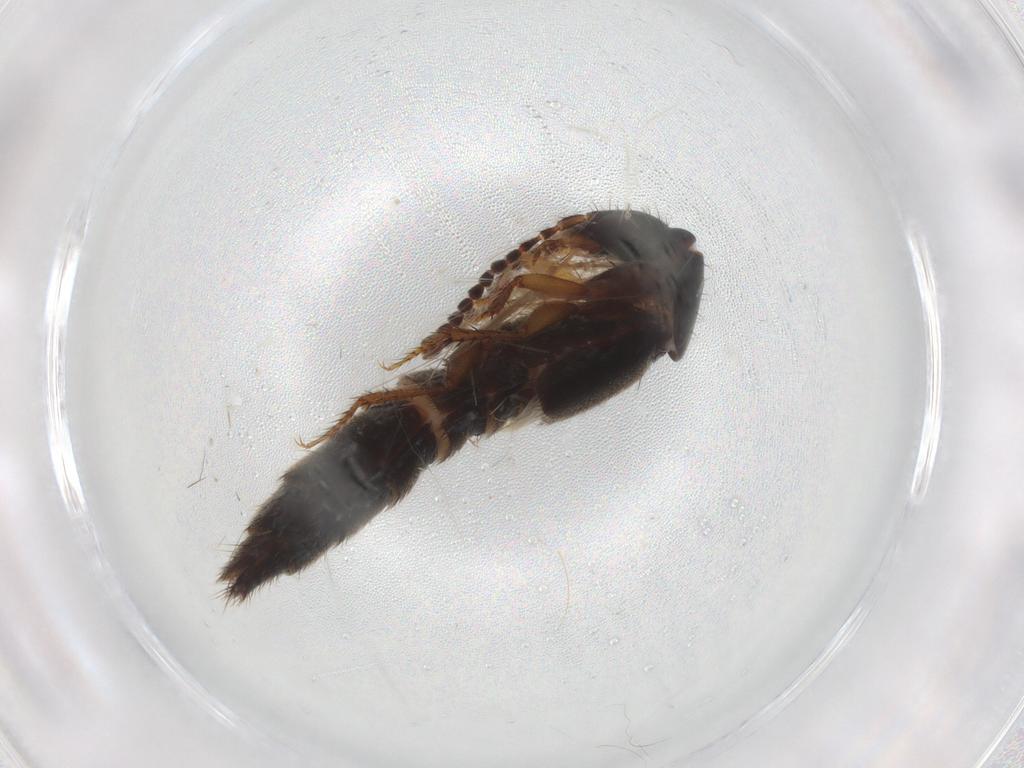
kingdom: Animalia
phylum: Arthropoda
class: Insecta
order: Coleoptera
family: Staphylinidae
